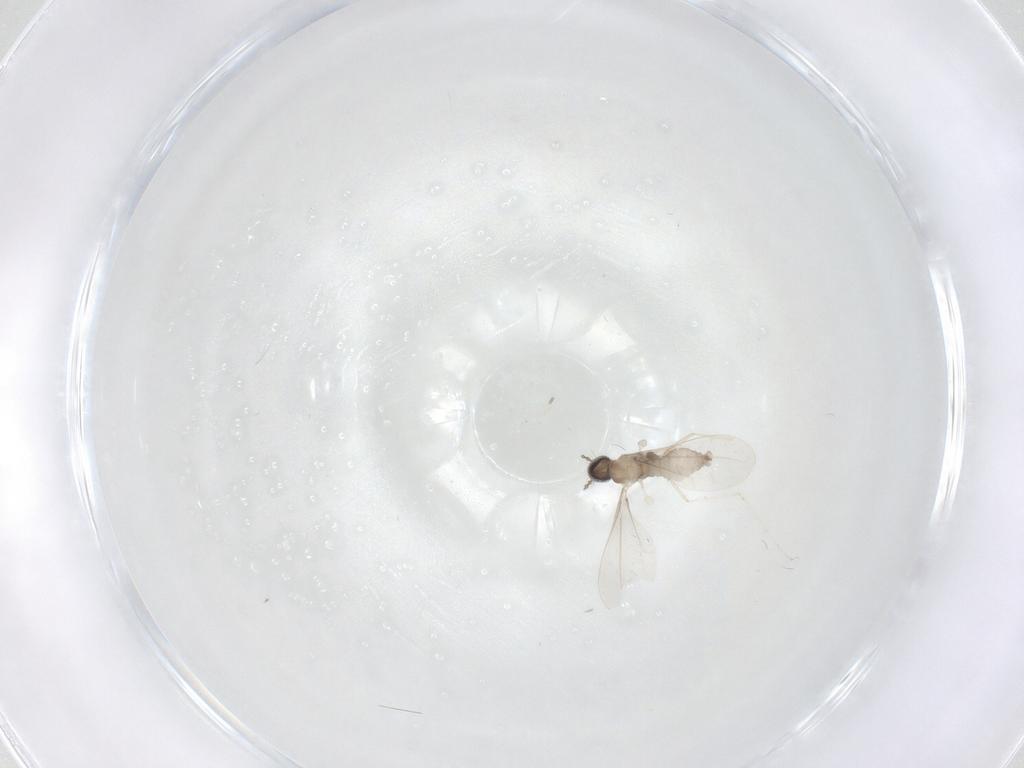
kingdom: Animalia
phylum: Arthropoda
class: Insecta
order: Diptera
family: Cecidomyiidae
